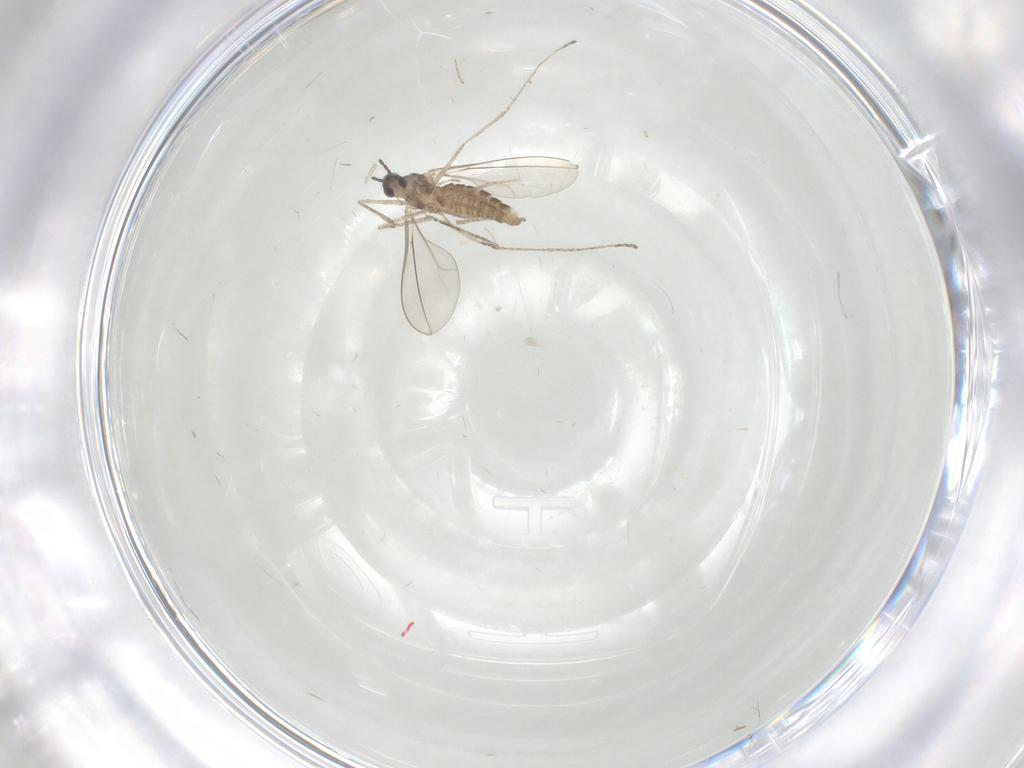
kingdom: Animalia
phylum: Arthropoda
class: Insecta
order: Diptera
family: Cecidomyiidae
